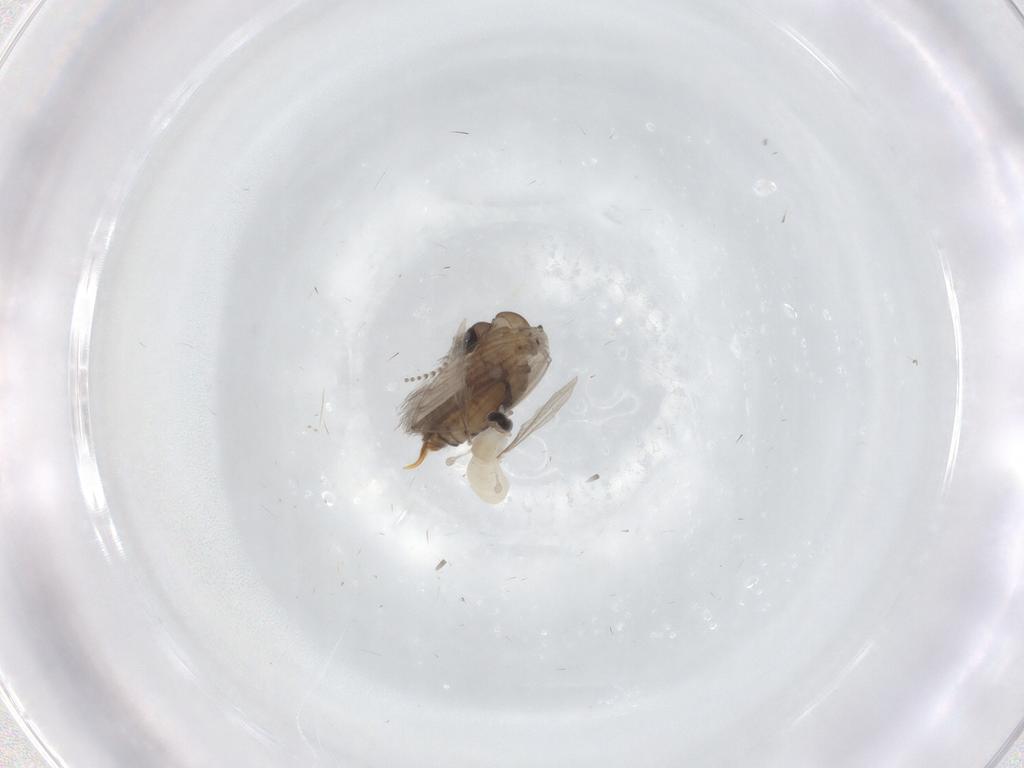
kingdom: Animalia
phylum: Arthropoda
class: Insecta
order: Diptera
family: Cecidomyiidae
